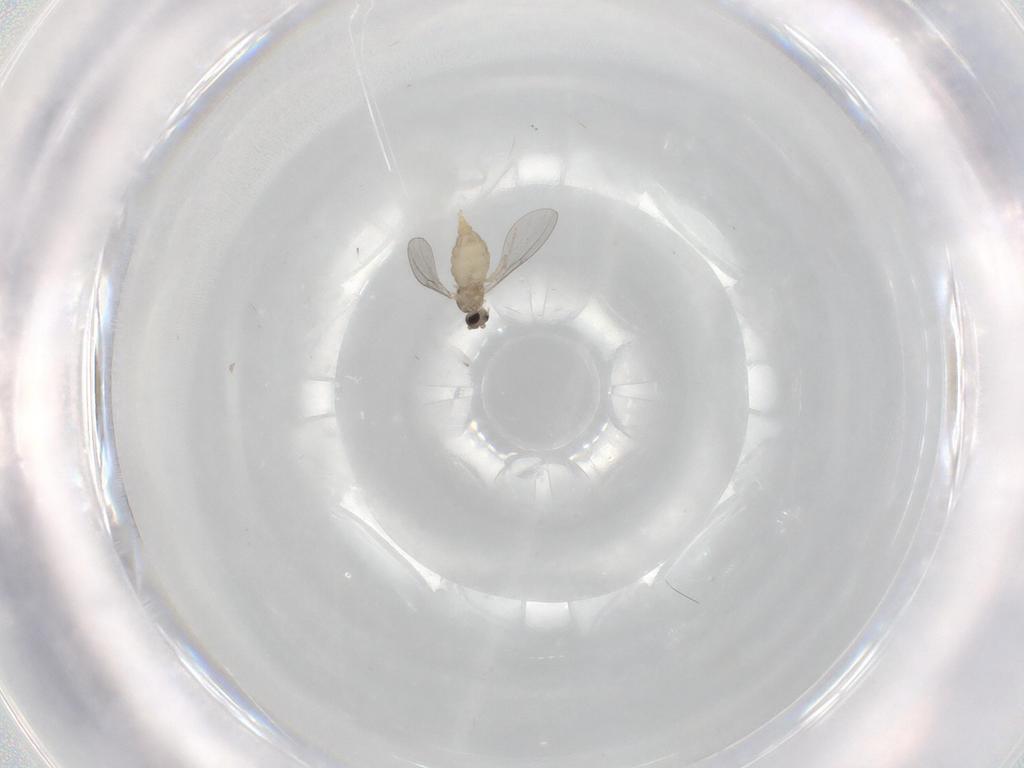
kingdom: Animalia
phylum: Arthropoda
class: Insecta
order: Diptera
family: Cecidomyiidae
